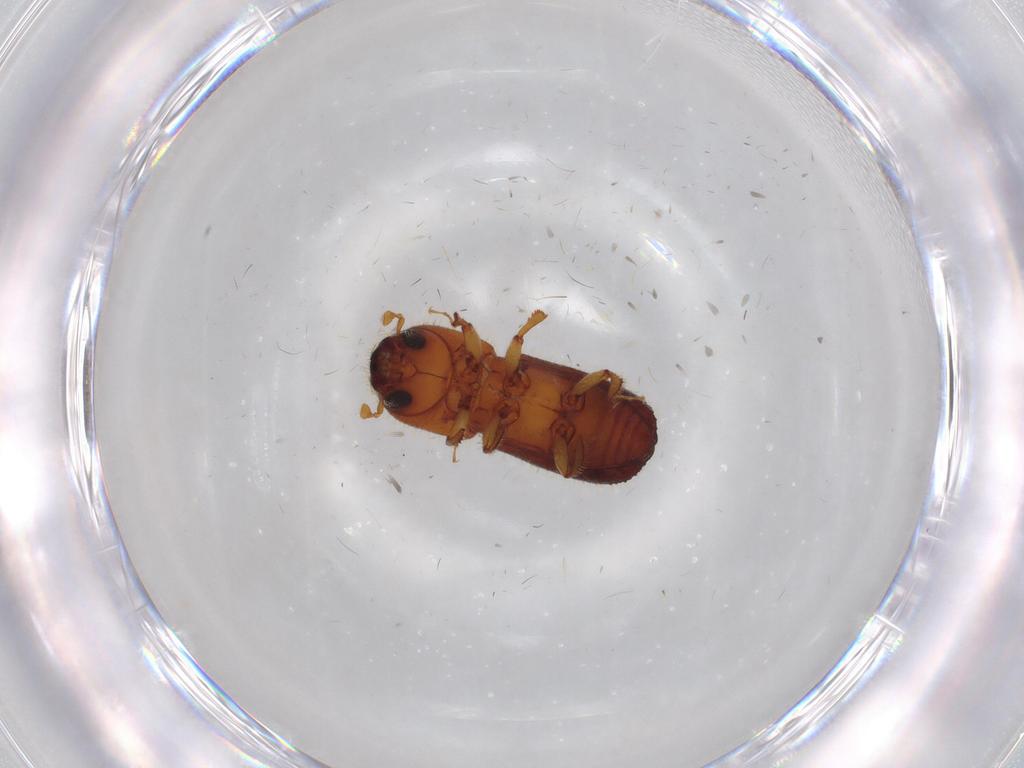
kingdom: Animalia
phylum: Arthropoda
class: Insecta
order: Coleoptera
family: Curculionidae
